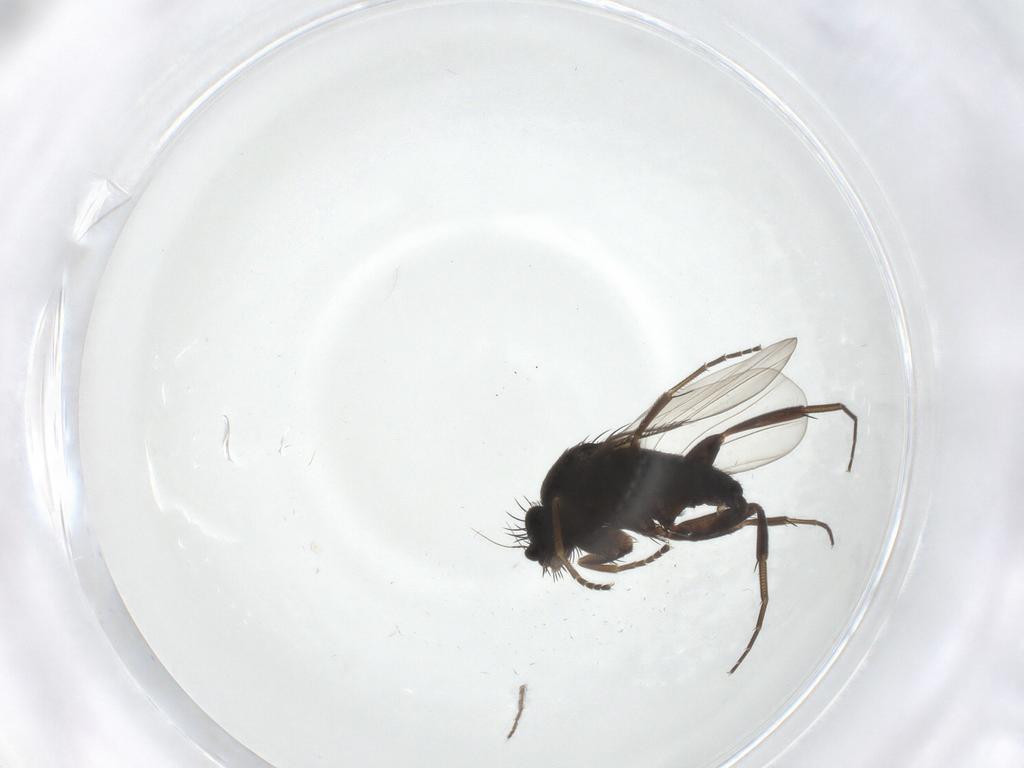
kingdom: Animalia
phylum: Arthropoda
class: Insecta
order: Diptera
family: Phoridae
